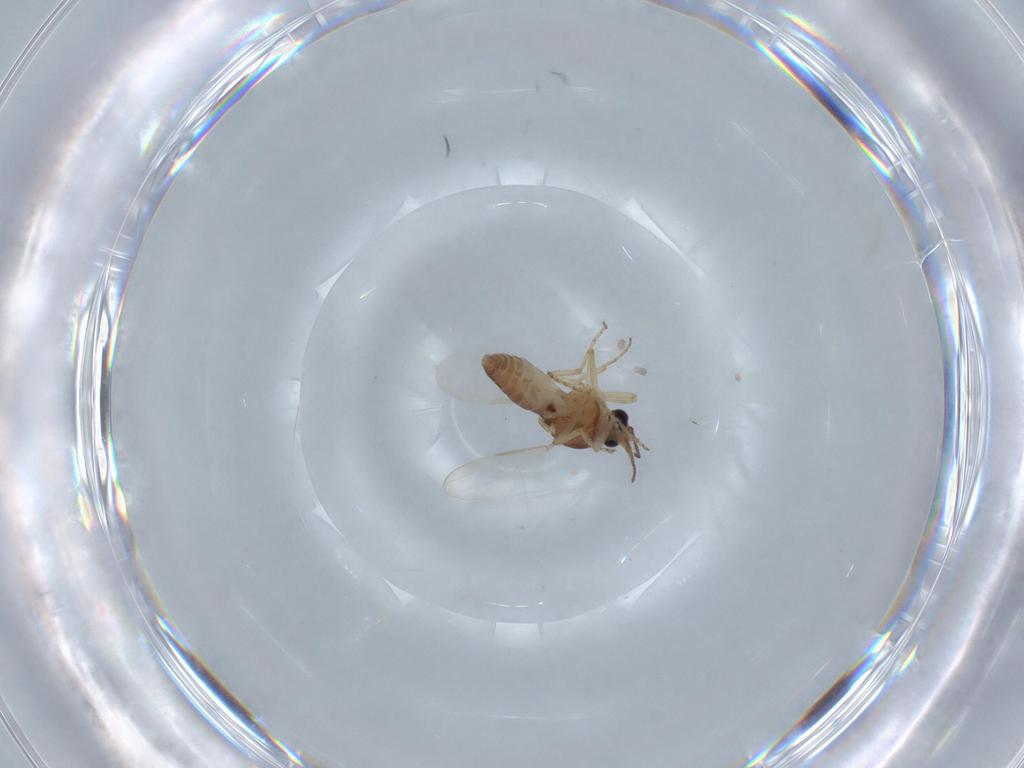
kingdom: Animalia
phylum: Arthropoda
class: Insecta
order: Diptera
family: Ceratopogonidae
